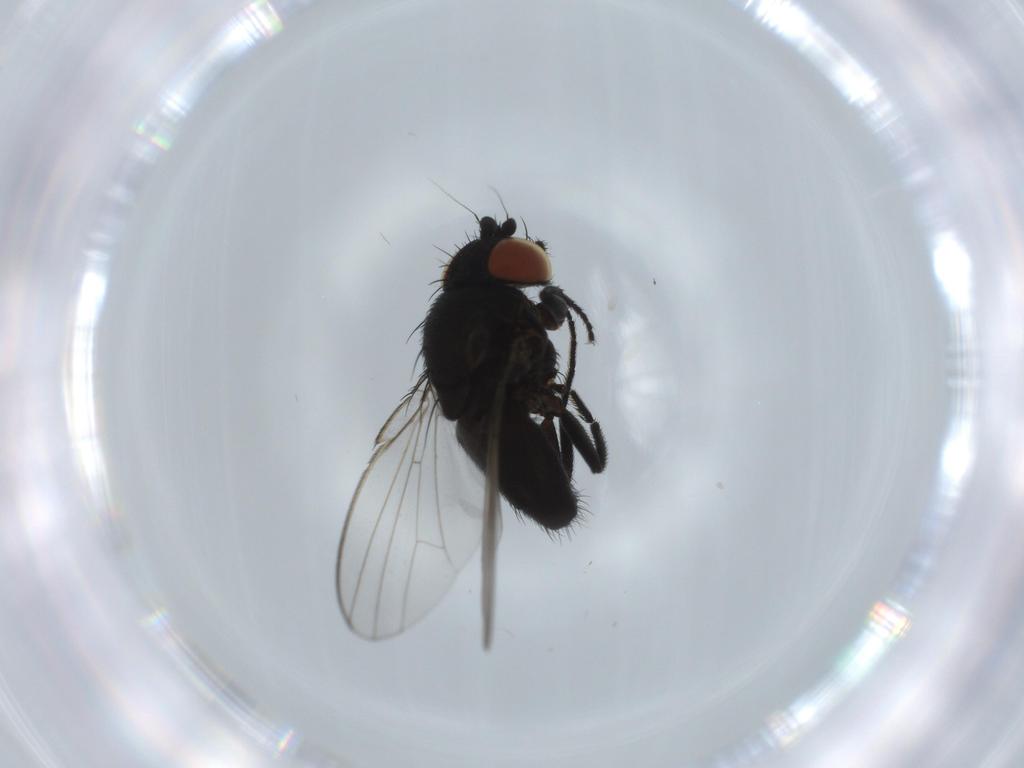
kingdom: Animalia
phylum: Arthropoda
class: Insecta
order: Diptera
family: Milichiidae
